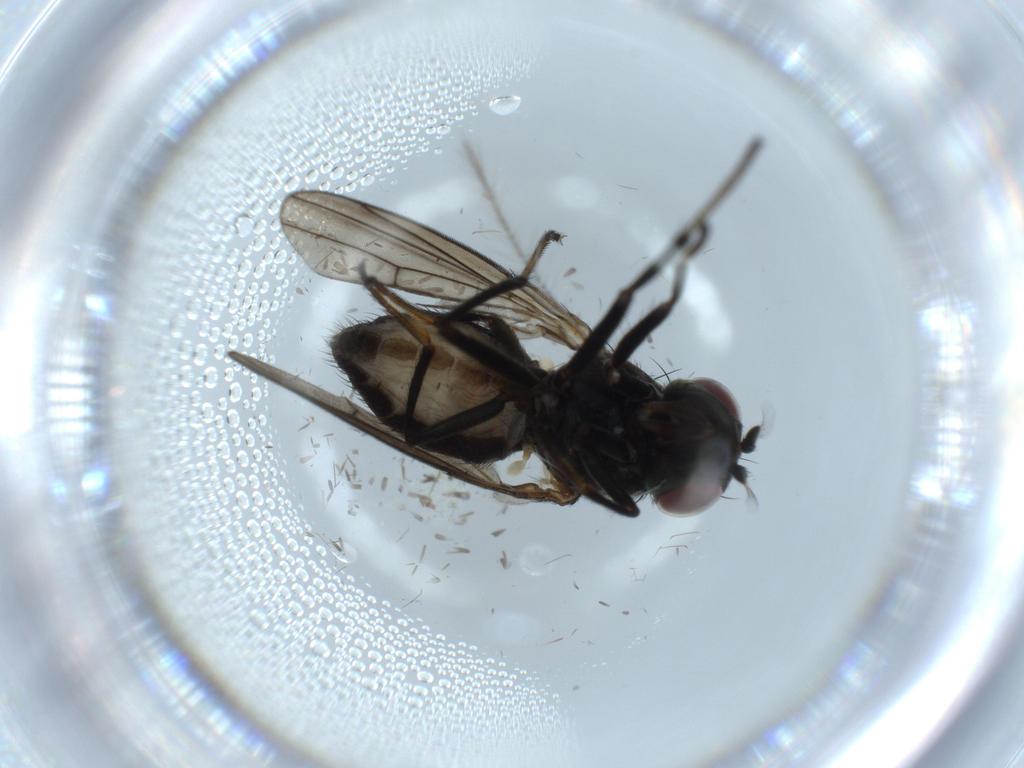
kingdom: Animalia
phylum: Arthropoda
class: Insecta
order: Diptera
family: Ephydridae
